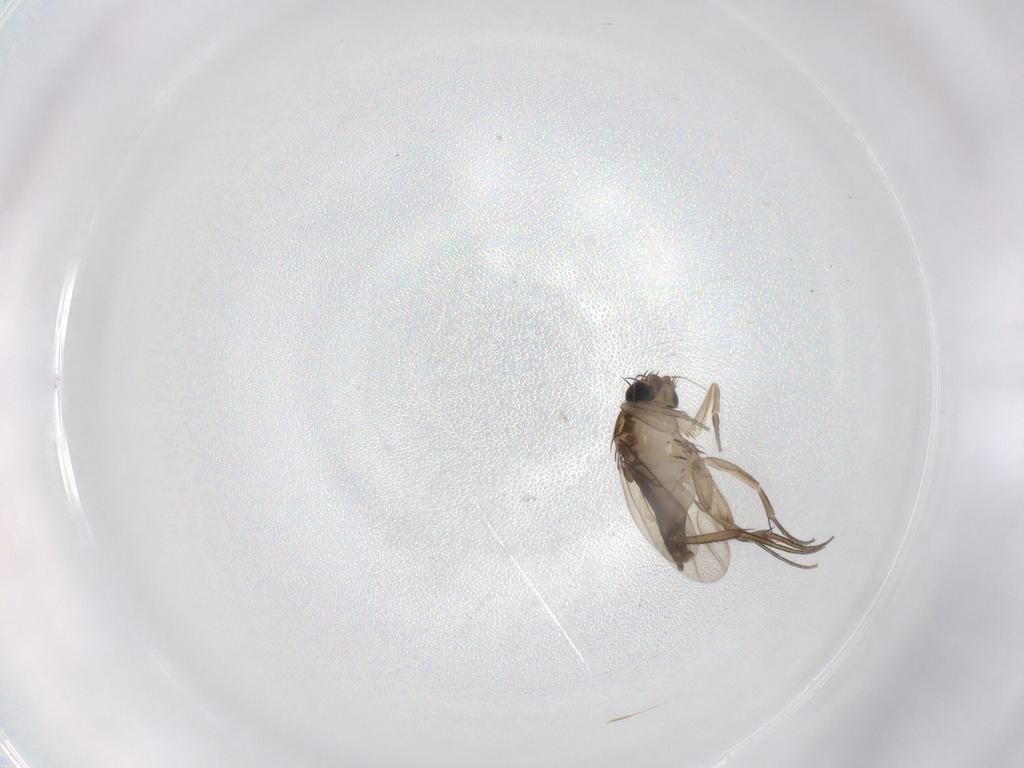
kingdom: Animalia
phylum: Arthropoda
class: Insecta
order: Diptera
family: Phoridae
